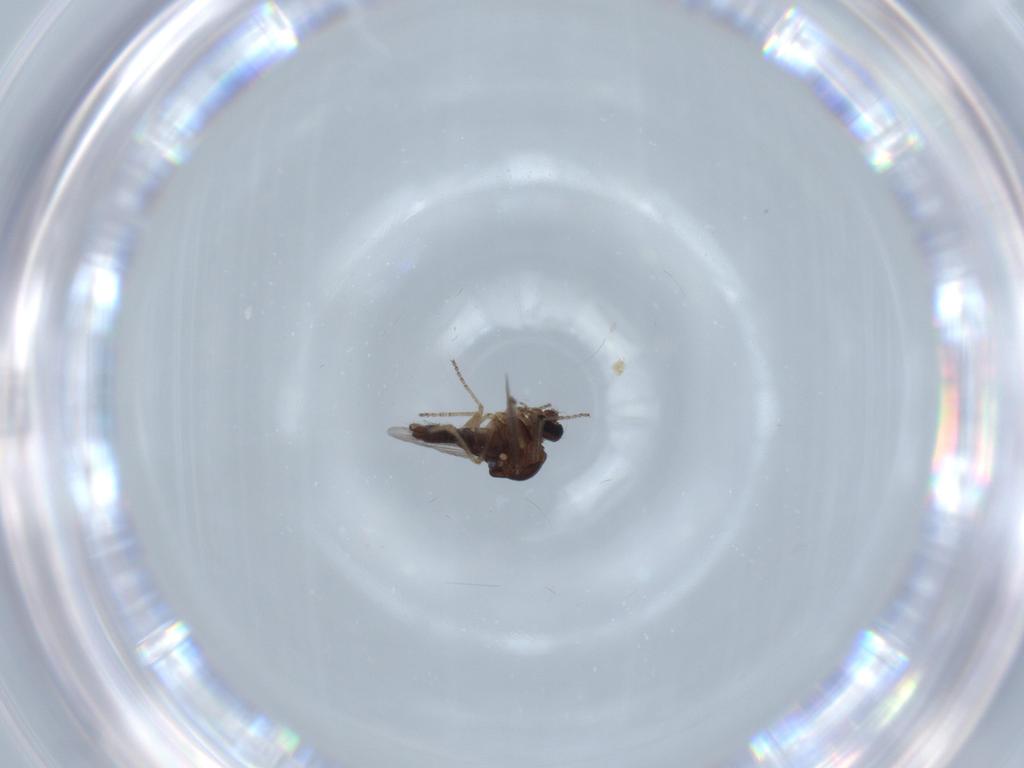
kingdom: Animalia
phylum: Arthropoda
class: Insecta
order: Diptera
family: Ceratopogonidae
